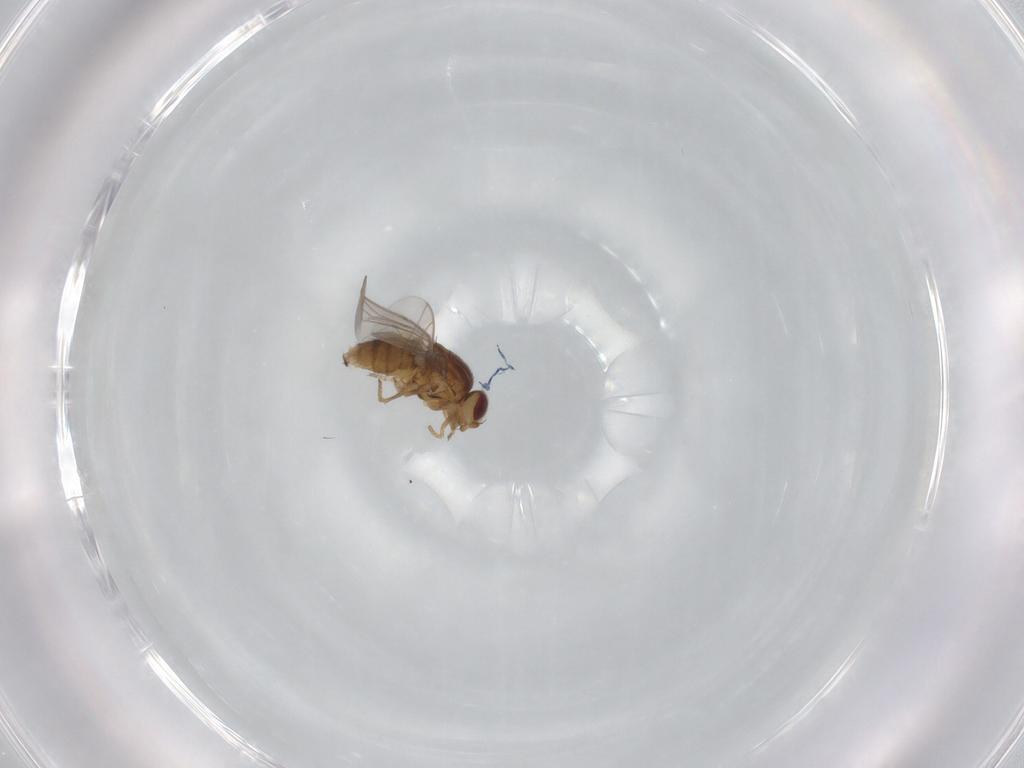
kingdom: Animalia
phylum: Arthropoda
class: Insecta
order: Diptera
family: Chloropidae
